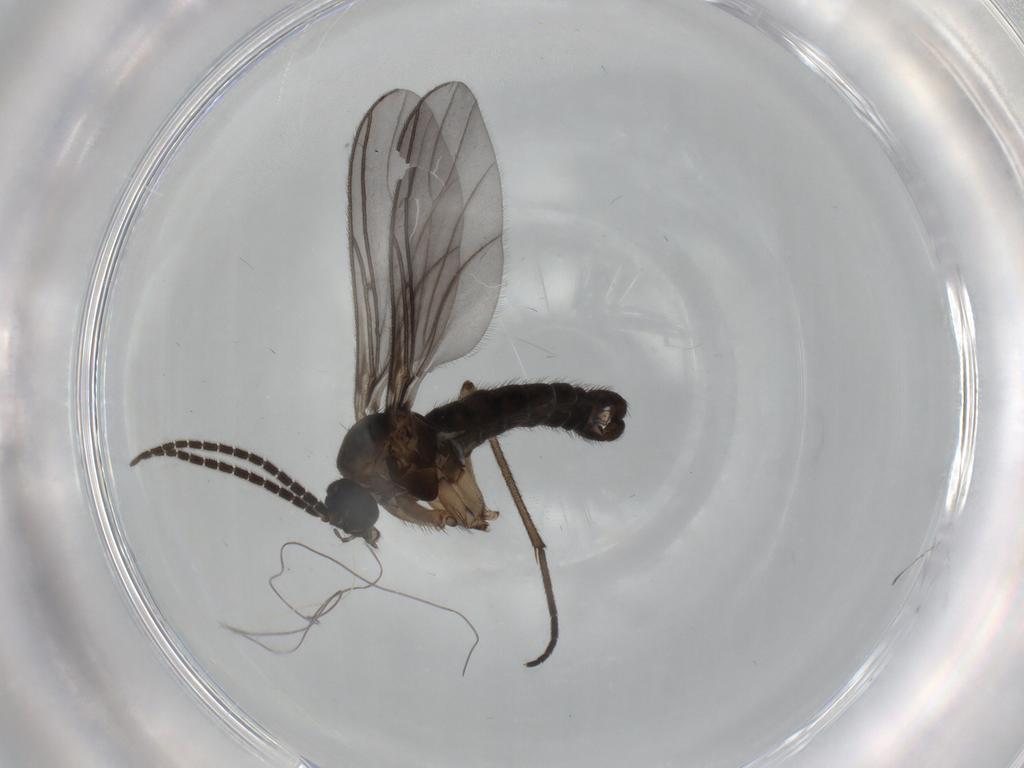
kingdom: Animalia
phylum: Arthropoda
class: Insecta
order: Diptera
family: Sciaridae
